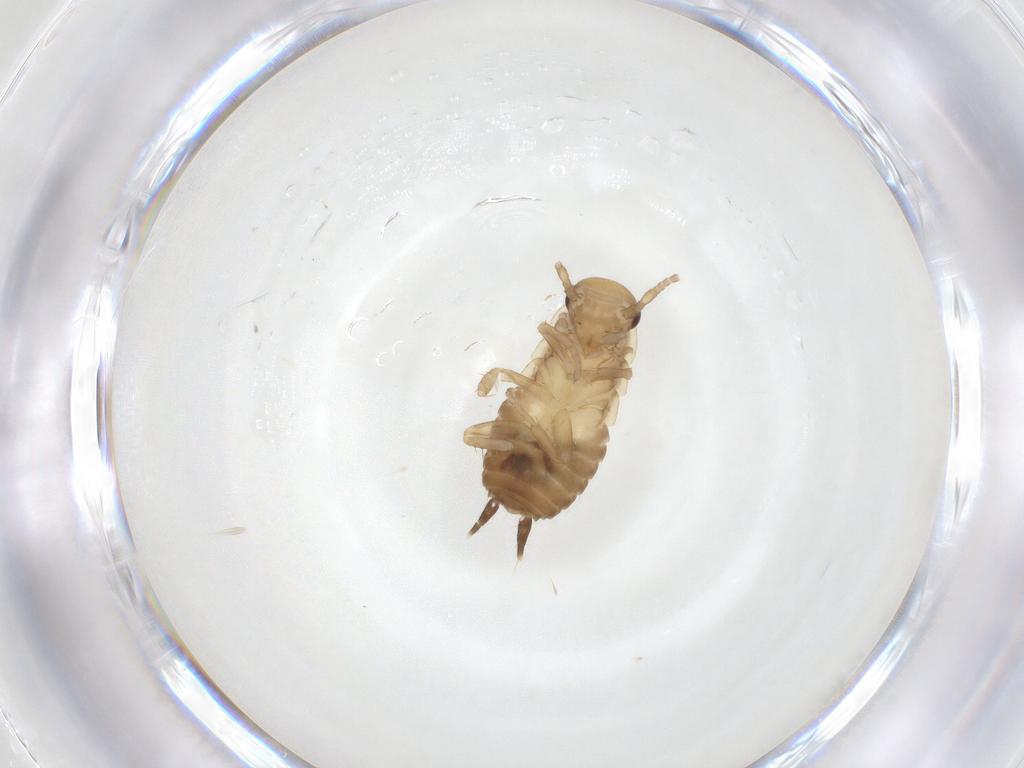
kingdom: Animalia
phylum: Arthropoda
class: Insecta
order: Blattodea
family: Ectobiidae
